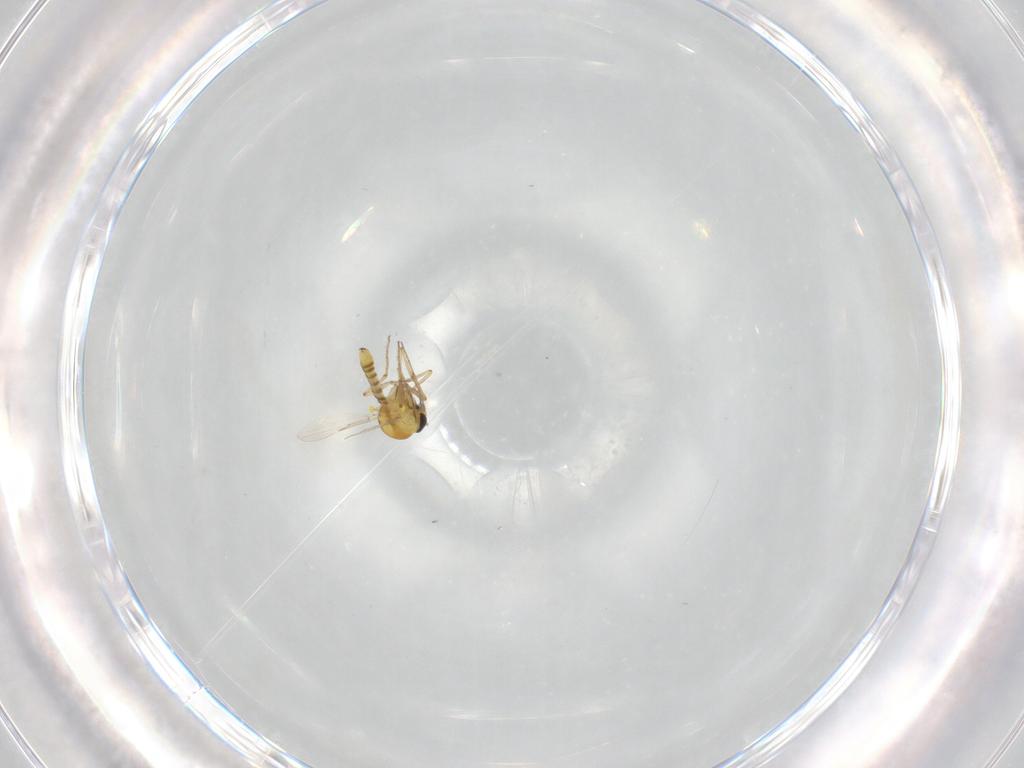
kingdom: Animalia
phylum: Arthropoda
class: Insecta
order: Diptera
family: Ceratopogonidae
